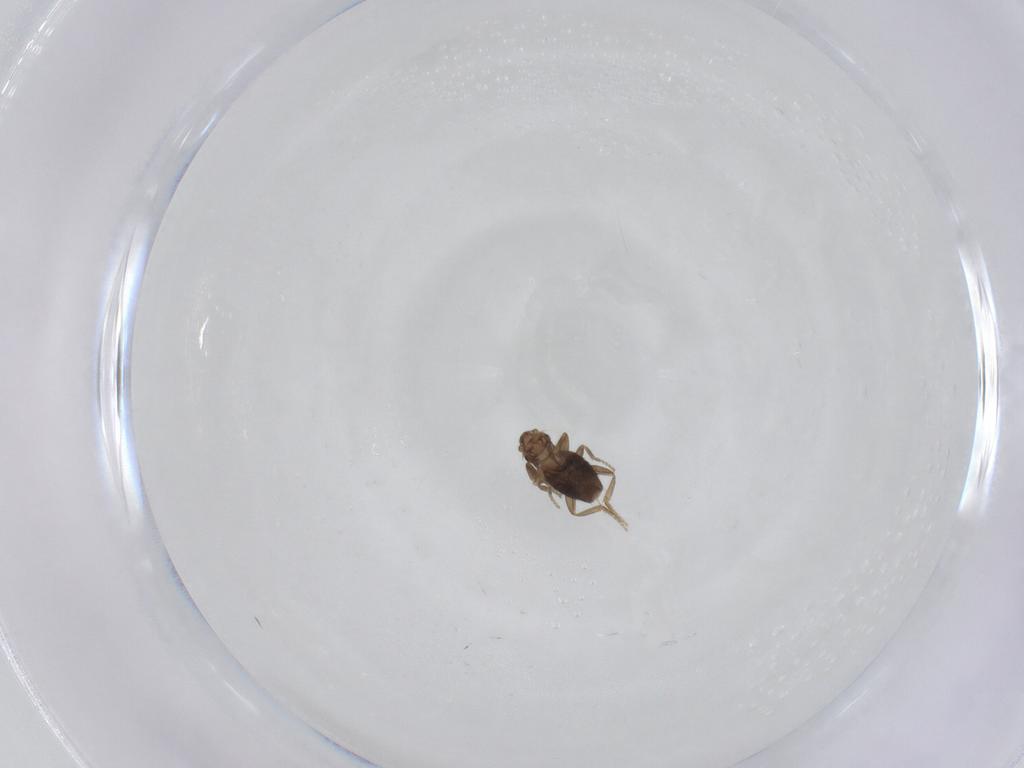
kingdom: Animalia
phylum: Arthropoda
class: Insecta
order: Diptera
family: Phoridae
